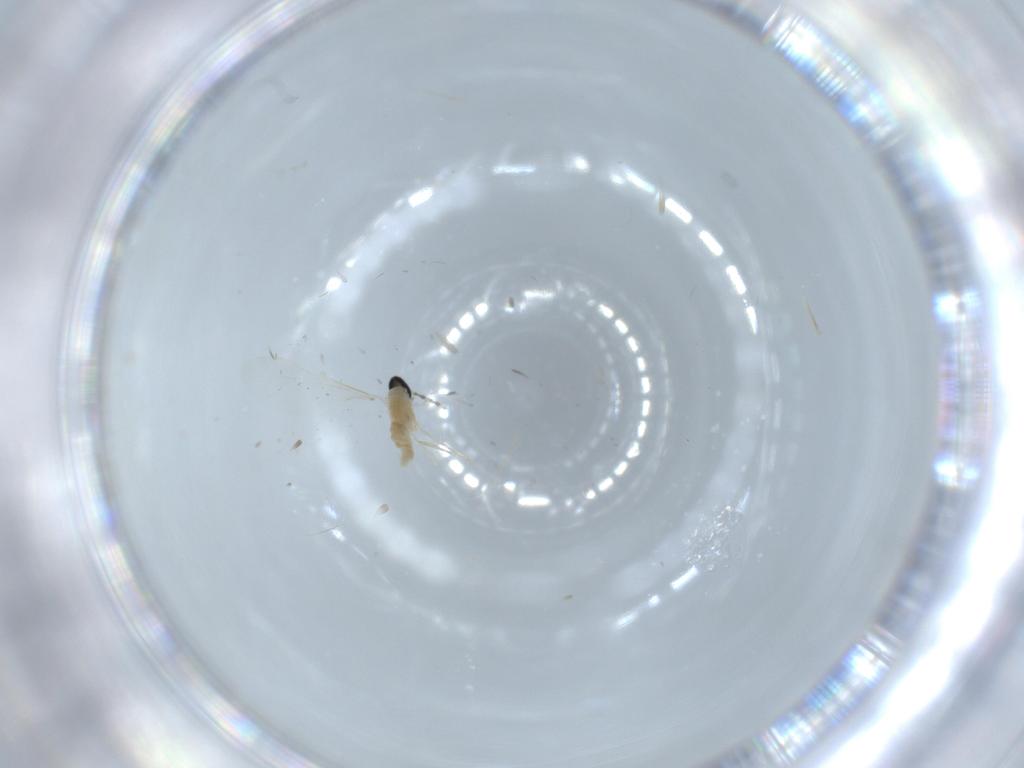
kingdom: Animalia
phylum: Arthropoda
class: Insecta
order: Diptera
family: Cecidomyiidae
